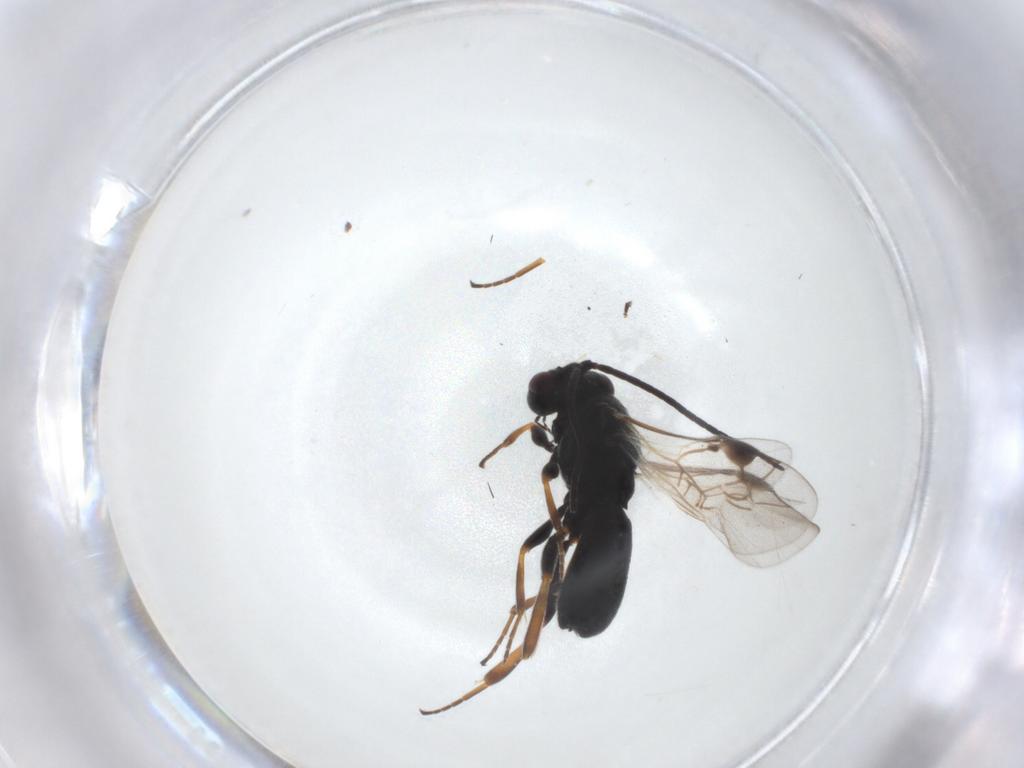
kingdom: Animalia
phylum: Arthropoda
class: Insecta
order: Hymenoptera
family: Braconidae
